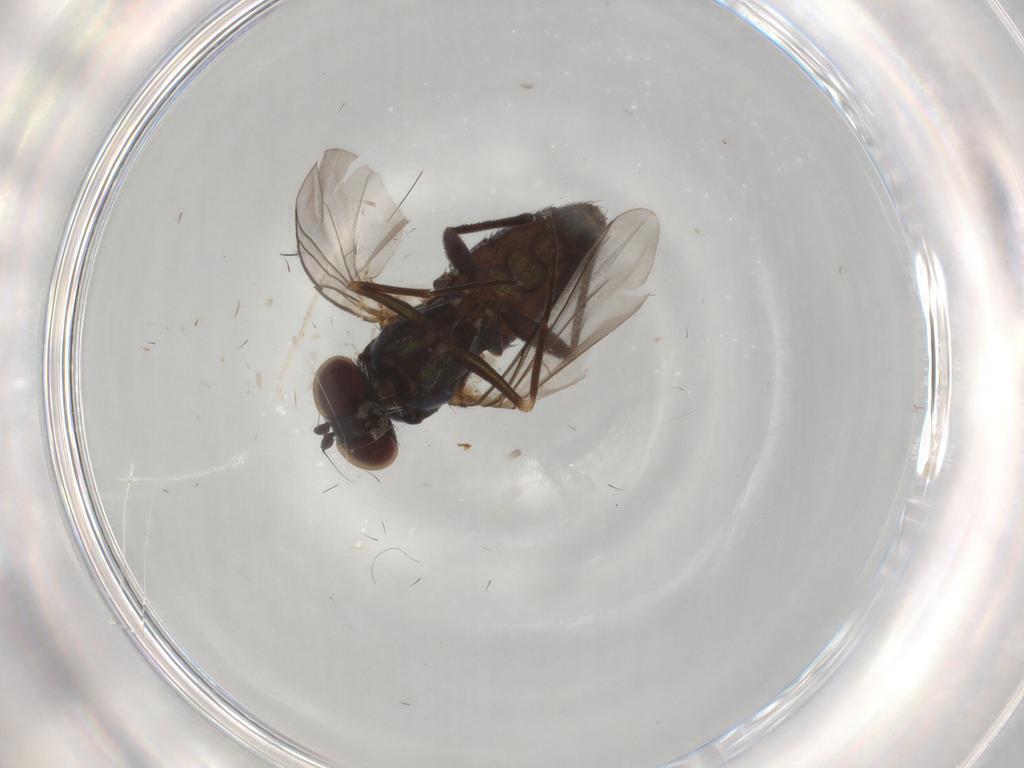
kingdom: Animalia
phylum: Arthropoda
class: Insecta
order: Diptera
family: Dolichopodidae
